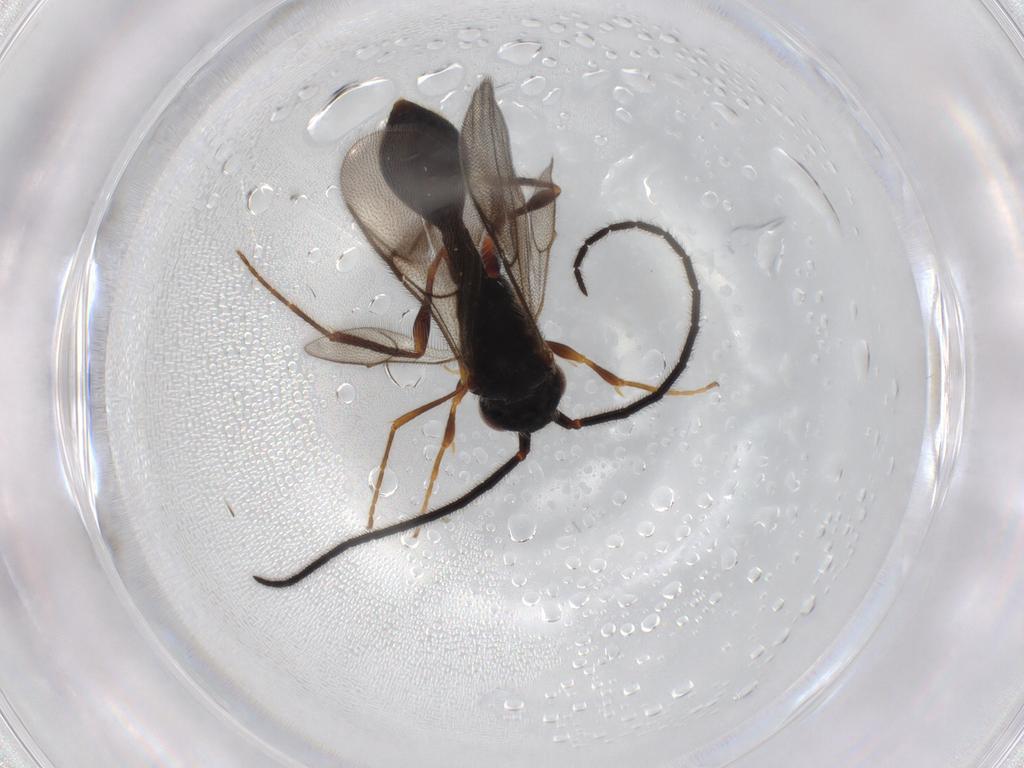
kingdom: Animalia
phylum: Arthropoda
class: Insecta
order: Hymenoptera
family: Diapriidae
